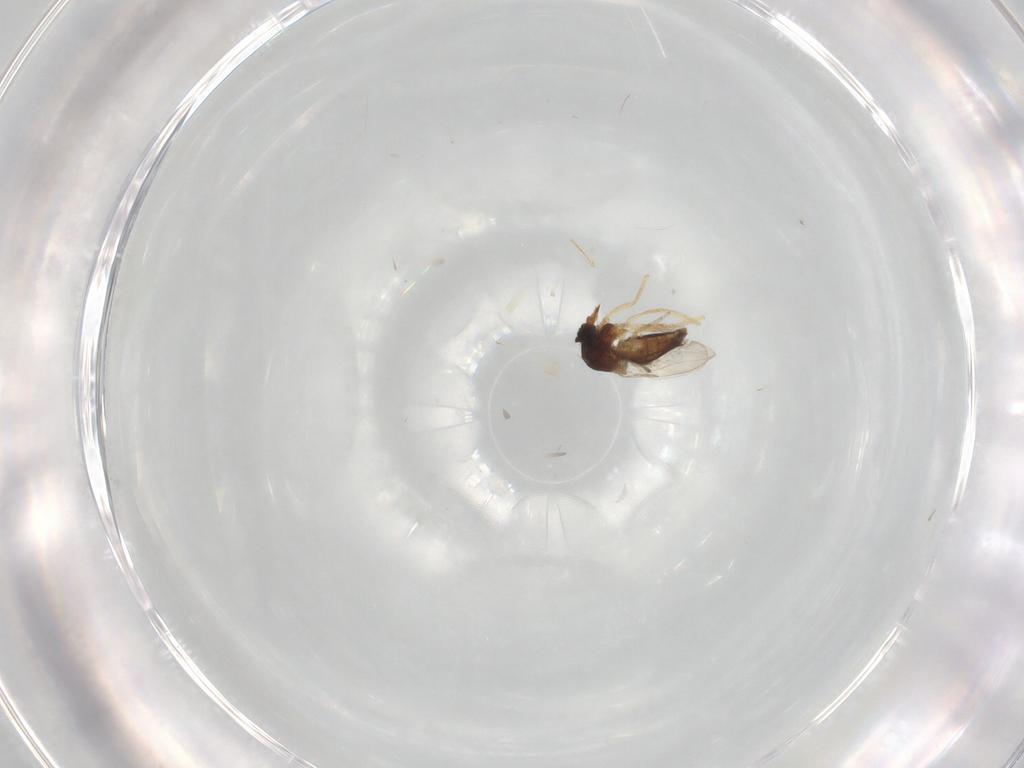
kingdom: Animalia
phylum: Arthropoda
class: Insecta
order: Diptera
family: Ceratopogonidae
